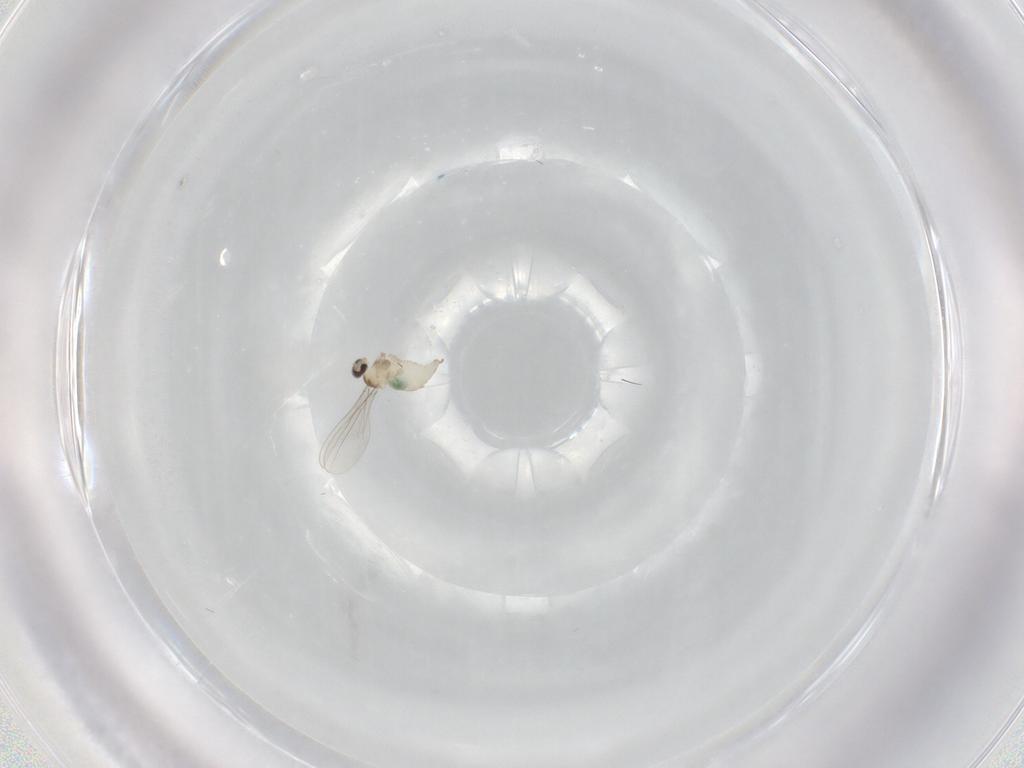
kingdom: Animalia
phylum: Arthropoda
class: Insecta
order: Diptera
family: Cecidomyiidae
